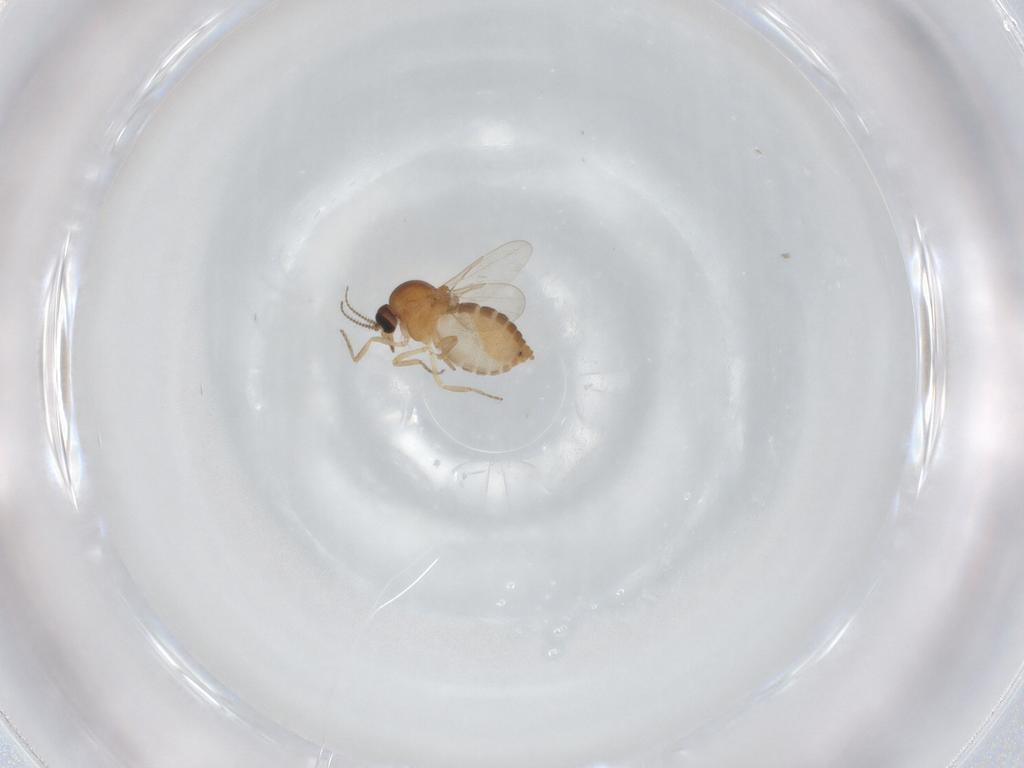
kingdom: Animalia
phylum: Arthropoda
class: Insecta
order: Diptera
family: Ceratopogonidae
